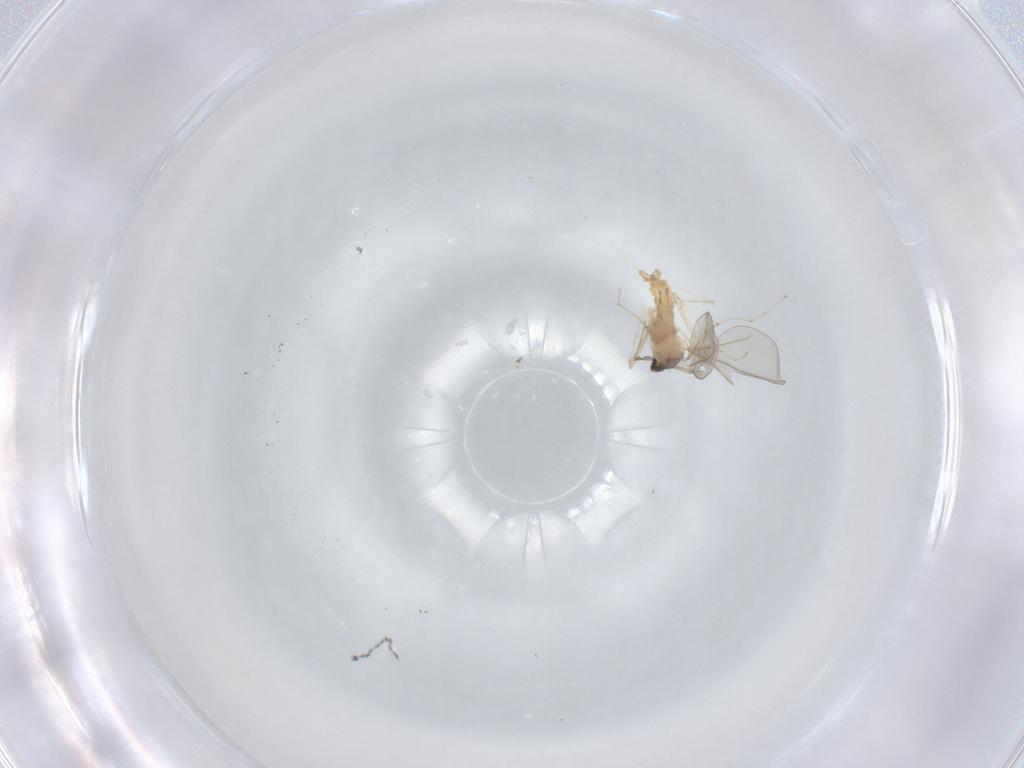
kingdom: Animalia
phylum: Arthropoda
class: Insecta
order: Diptera
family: Cecidomyiidae
